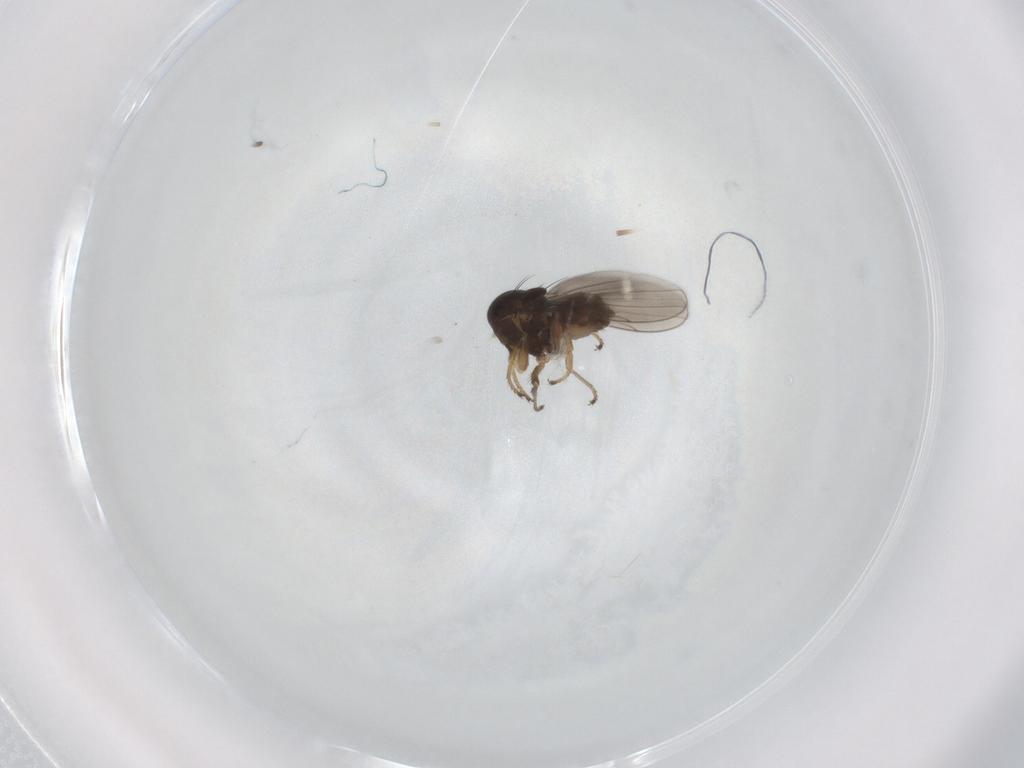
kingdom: Animalia
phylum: Arthropoda
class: Insecta
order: Diptera
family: Ephydridae
